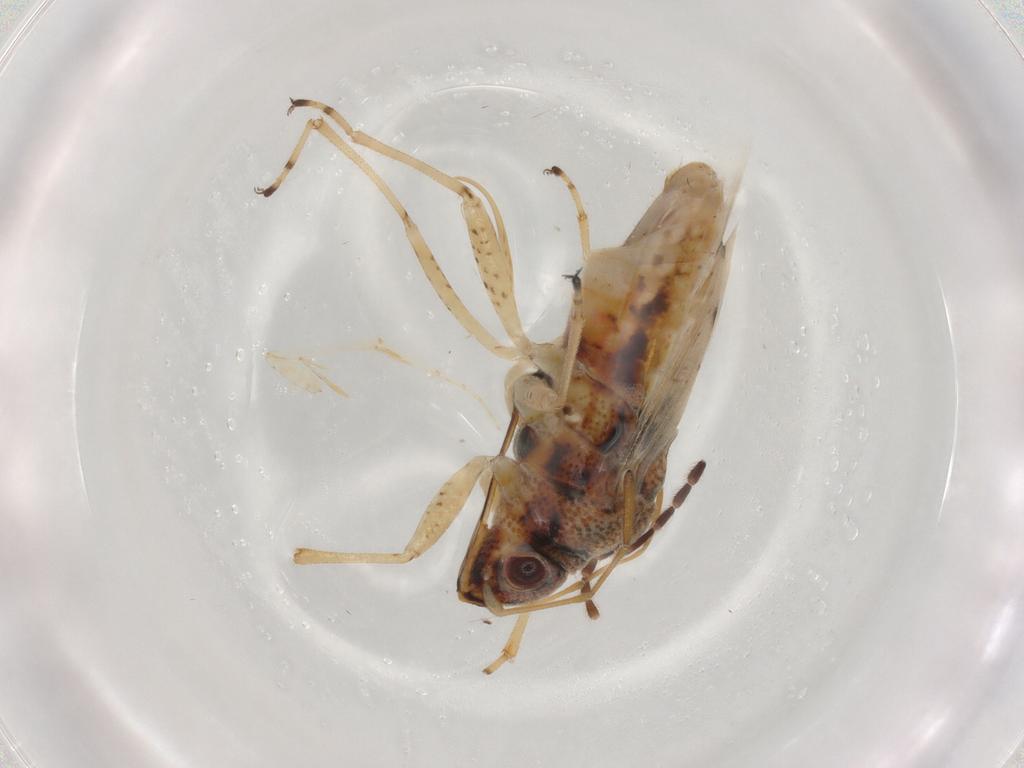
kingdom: Animalia
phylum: Arthropoda
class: Insecta
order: Hemiptera
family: Lygaeidae
